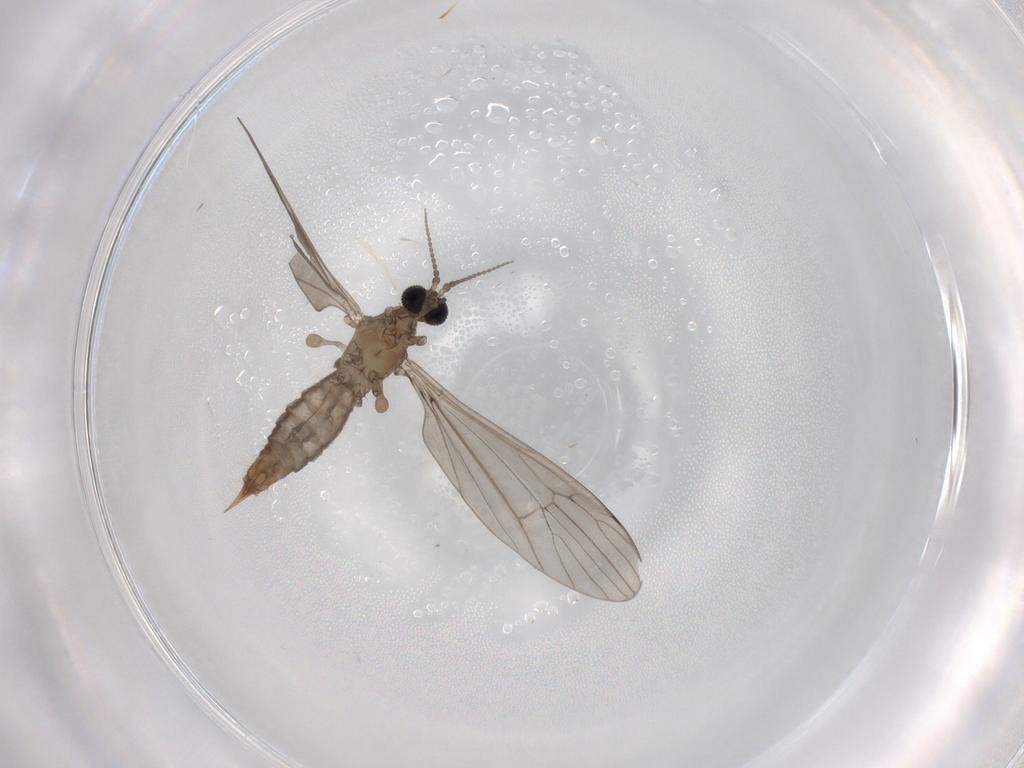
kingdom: Animalia
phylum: Arthropoda
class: Insecta
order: Diptera
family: Limoniidae
